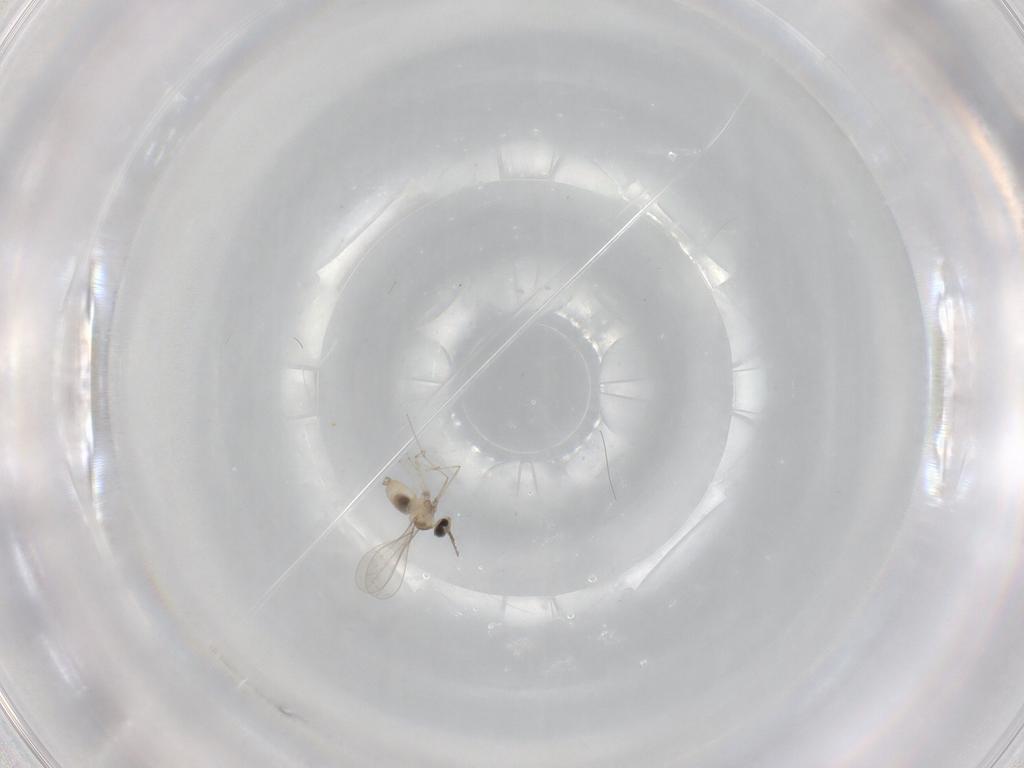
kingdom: Animalia
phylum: Arthropoda
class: Insecta
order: Diptera
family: Cecidomyiidae
